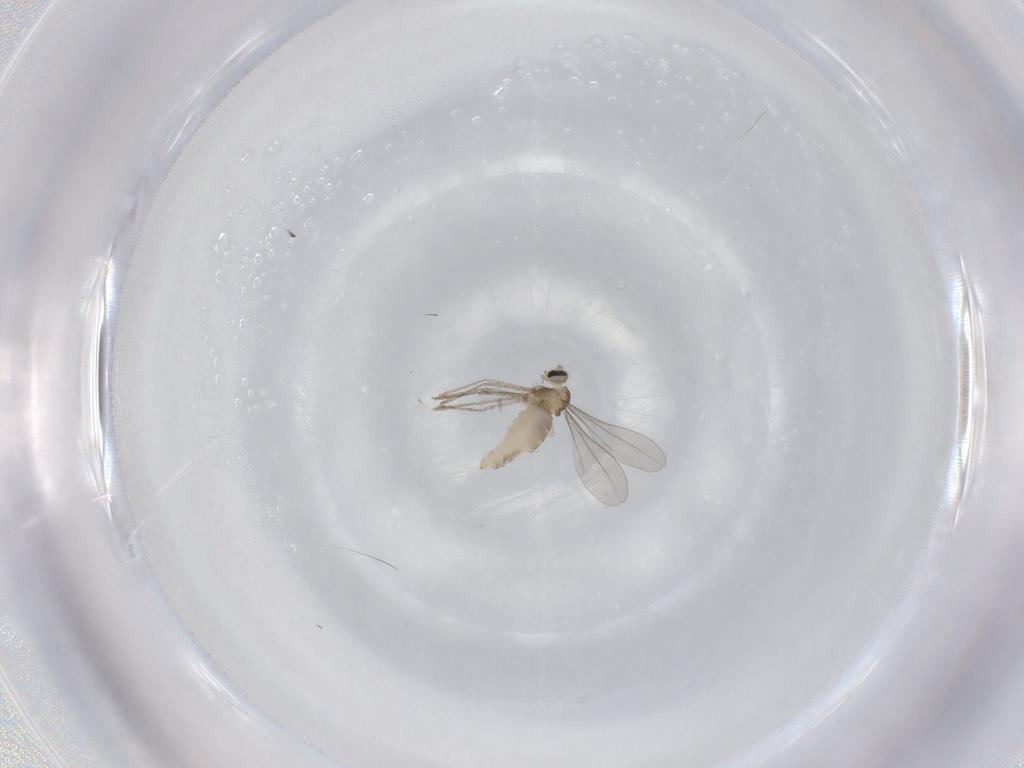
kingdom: Animalia
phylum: Arthropoda
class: Insecta
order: Diptera
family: Cecidomyiidae
